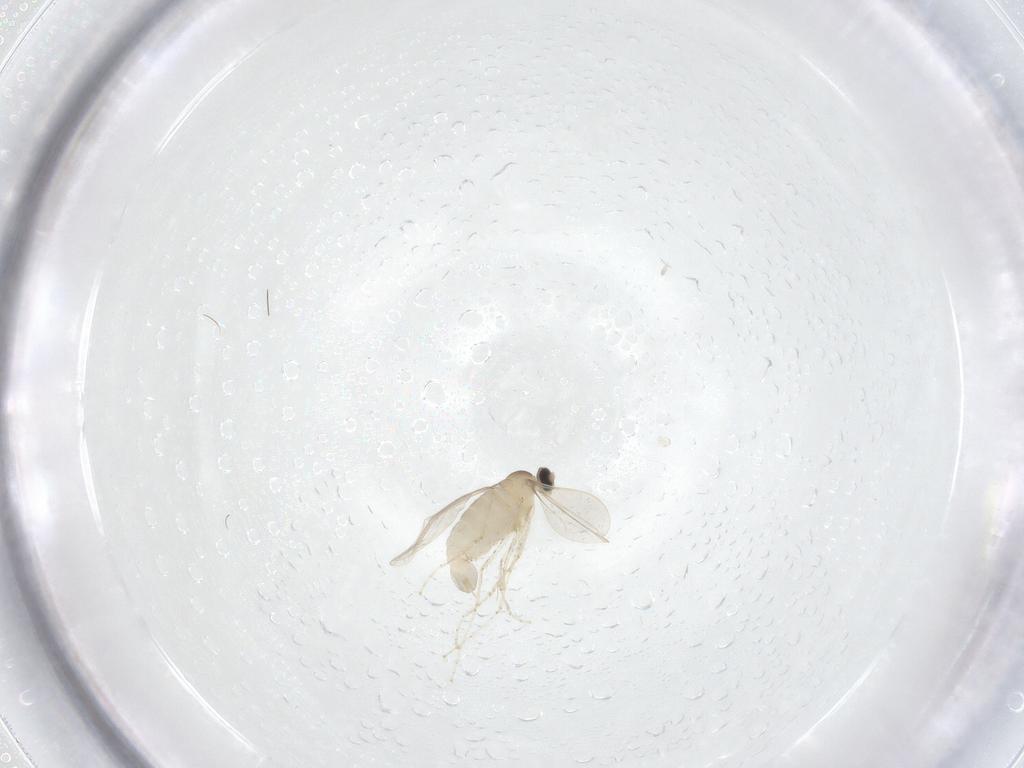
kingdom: Animalia
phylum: Arthropoda
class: Insecta
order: Diptera
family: Cecidomyiidae
